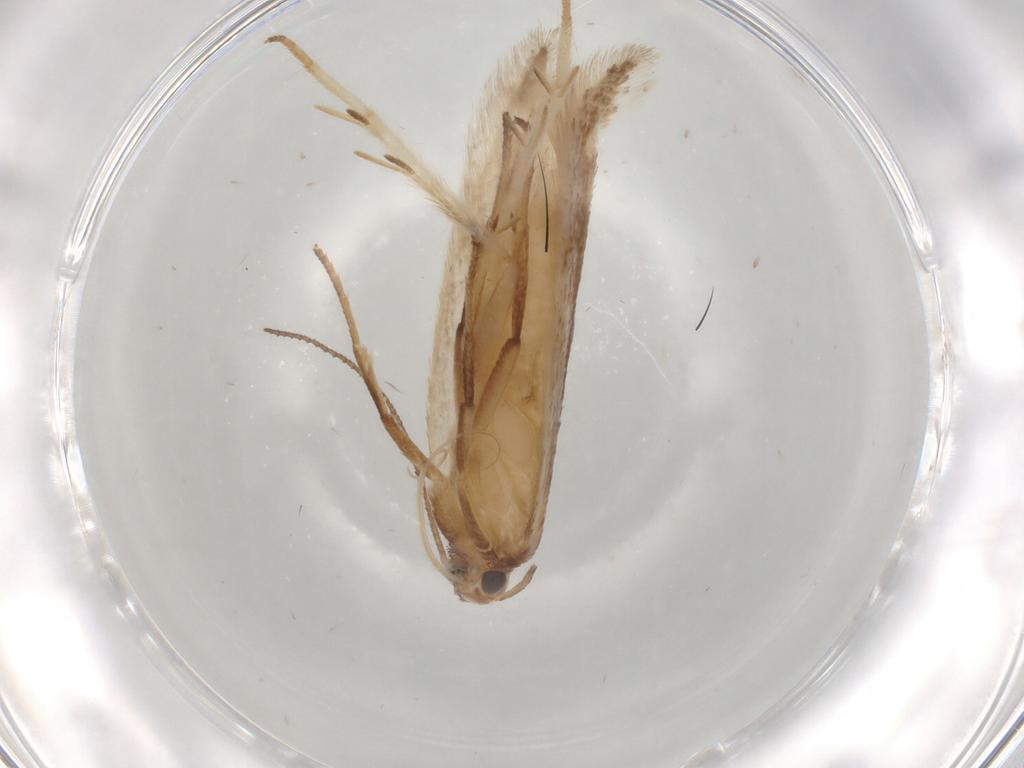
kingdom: Animalia
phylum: Arthropoda
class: Insecta
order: Lepidoptera
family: Gelechiidae
